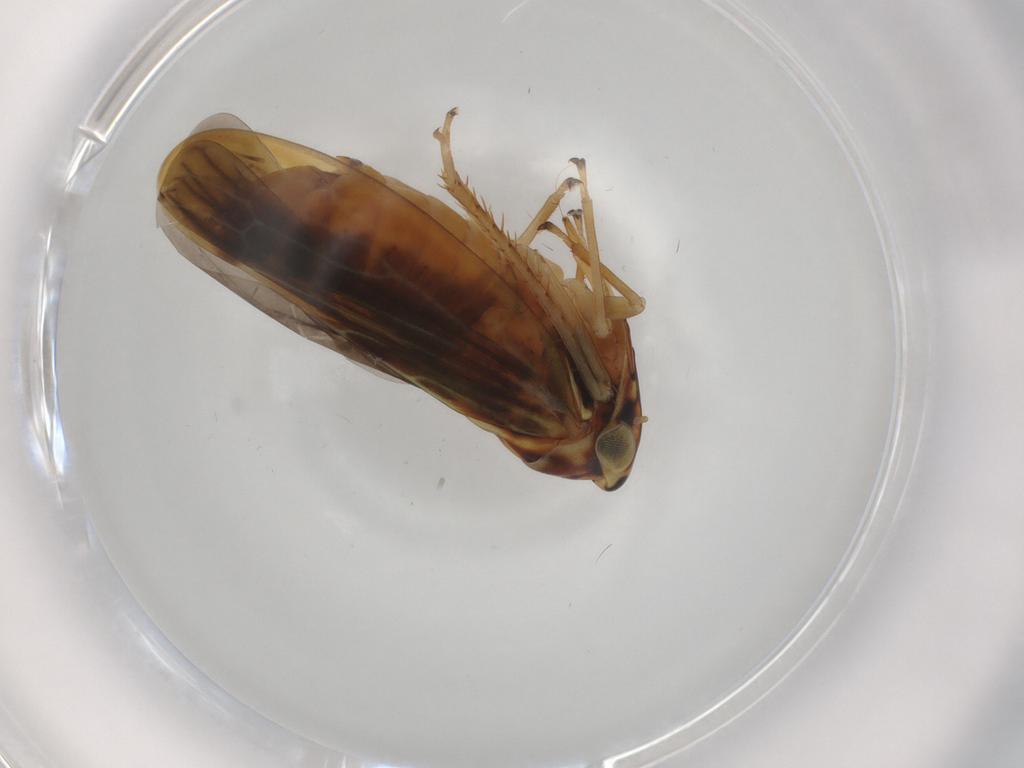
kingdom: Animalia
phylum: Arthropoda
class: Insecta
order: Hemiptera
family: Cicadellidae
